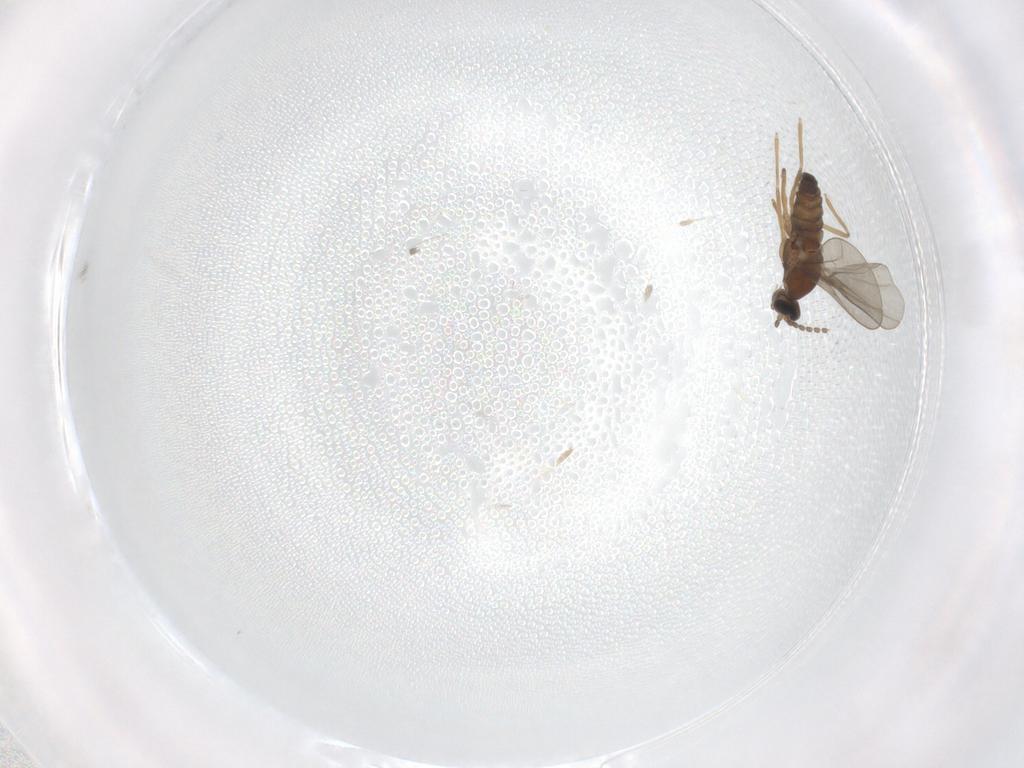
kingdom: Animalia
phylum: Arthropoda
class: Insecta
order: Diptera
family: Cecidomyiidae
